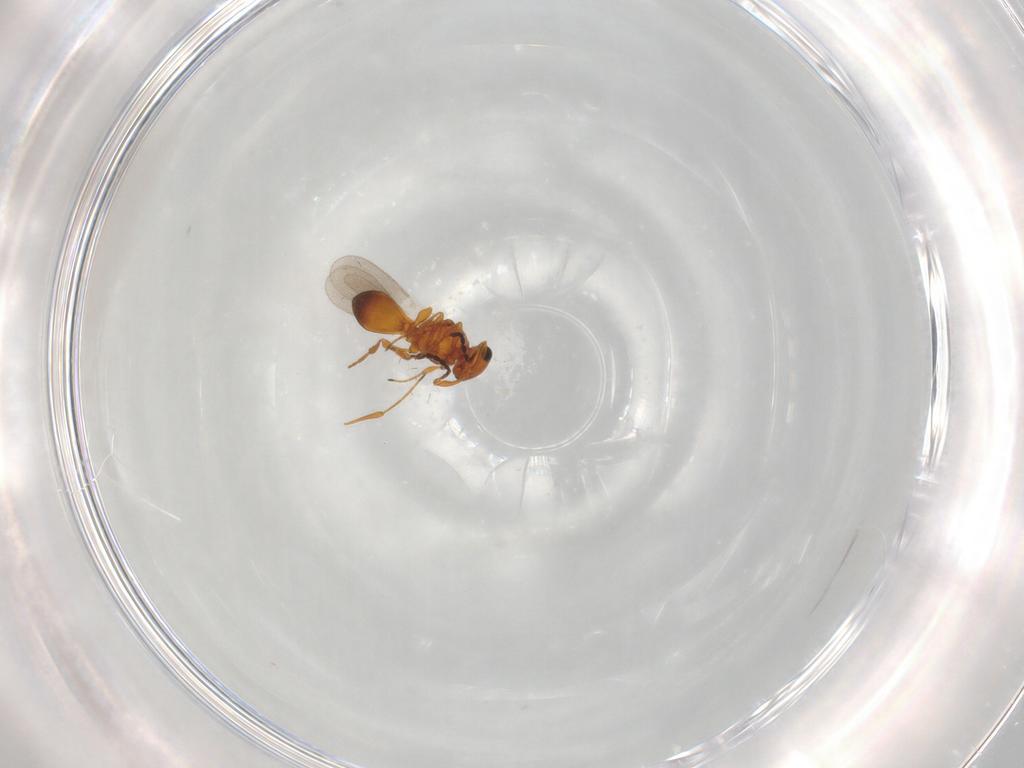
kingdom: Animalia
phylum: Arthropoda
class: Insecta
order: Hymenoptera
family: Platygastridae
